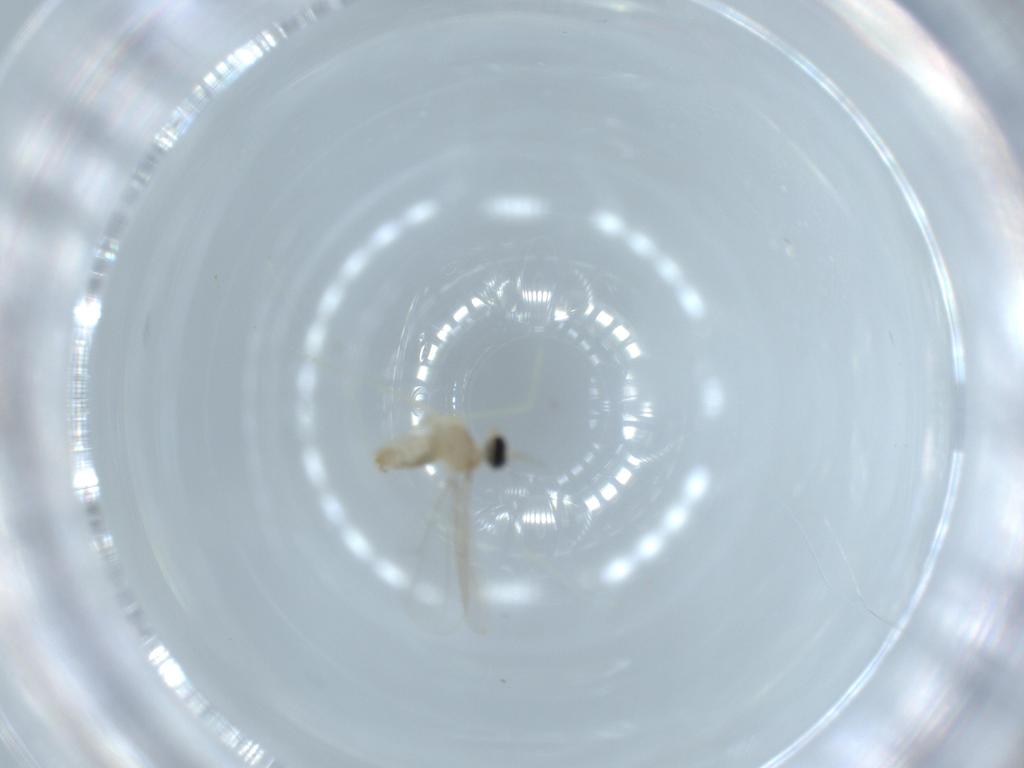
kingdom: Animalia
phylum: Arthropoda
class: Insecta
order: Diptera
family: Cecidomyiidae
